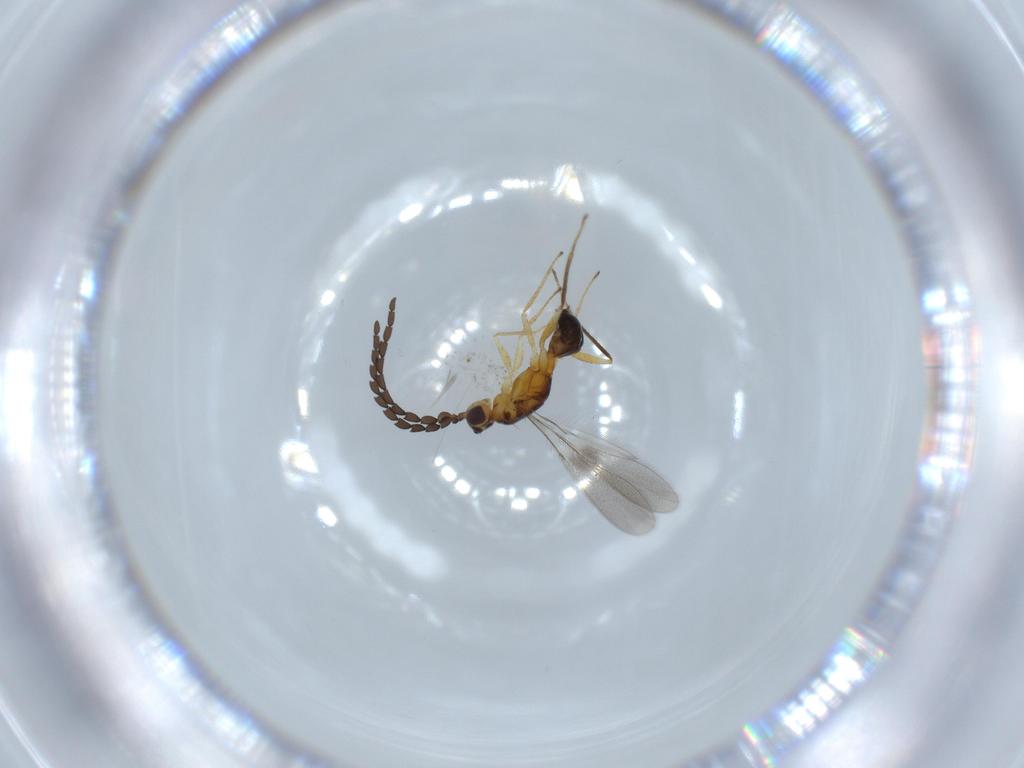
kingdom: Animalia
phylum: Arthropoda
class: Insecta
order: Hymenoptera
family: Mymaridae
